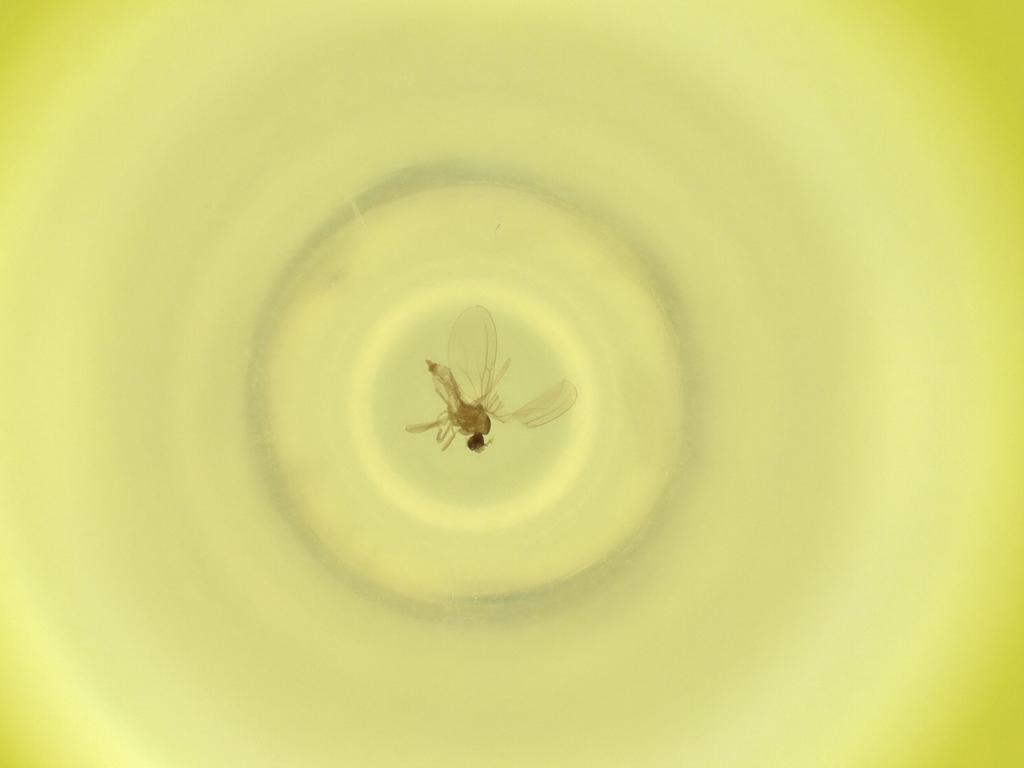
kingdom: Animalia
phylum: Arthropoda
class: Insecta
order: Diptera
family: Cecidomyiidae
